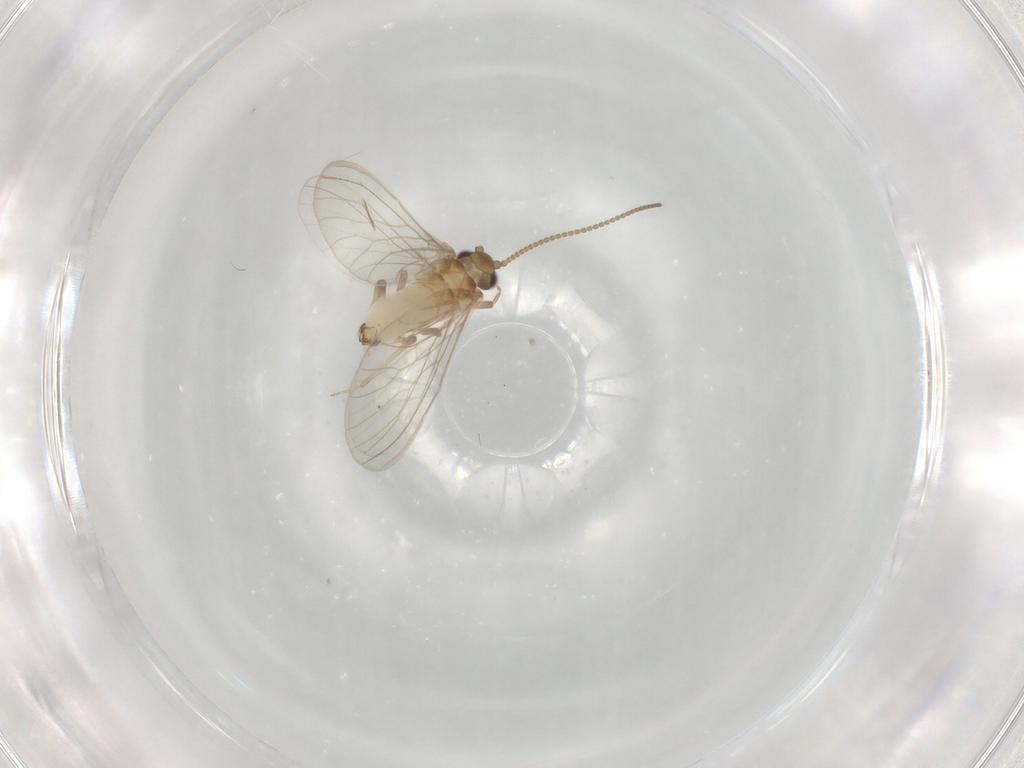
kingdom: Animalia
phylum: Arthropoda
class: Insecta
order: Neuroptera
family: Coniopterygidae
